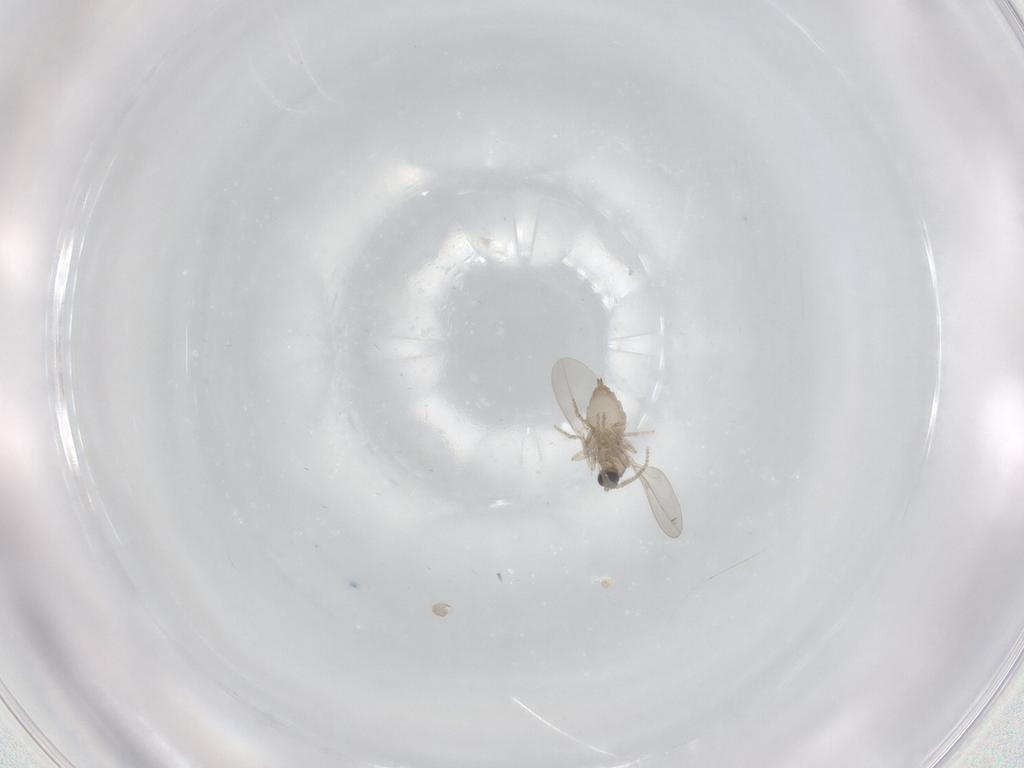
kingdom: Animalia
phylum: Arthropoda
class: Insecta
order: Diptera
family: Cecidomyiidae
